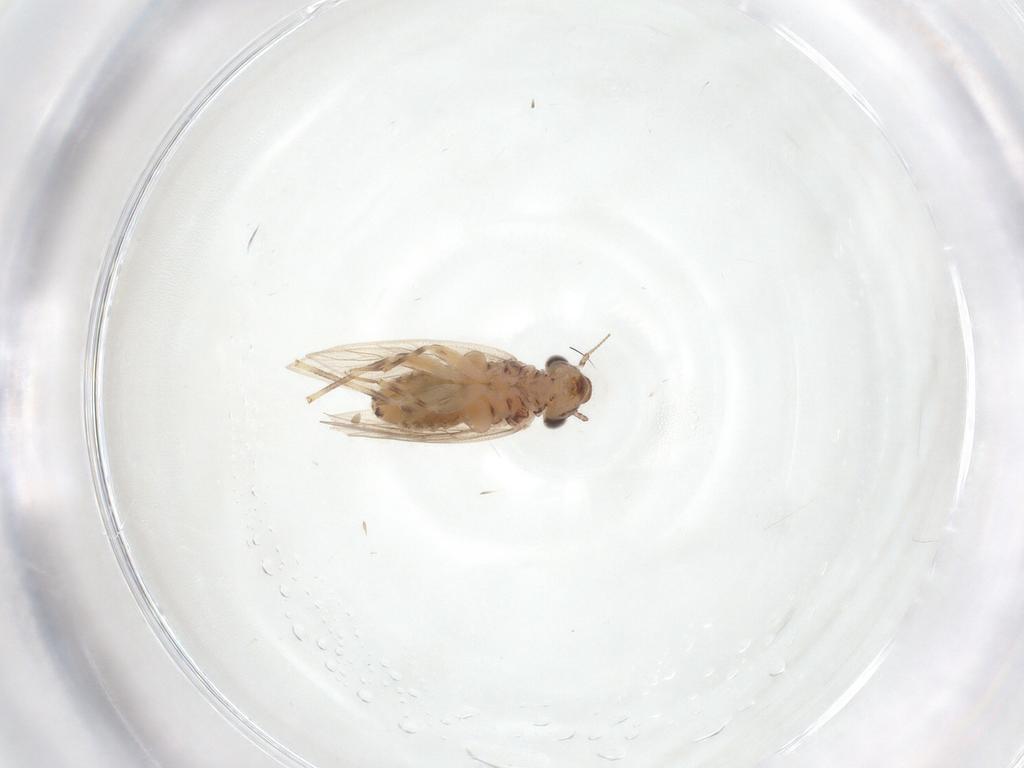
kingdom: Animalia
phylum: Arthropoda
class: Insecta
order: Psocodea
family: Lepidopsocidae
